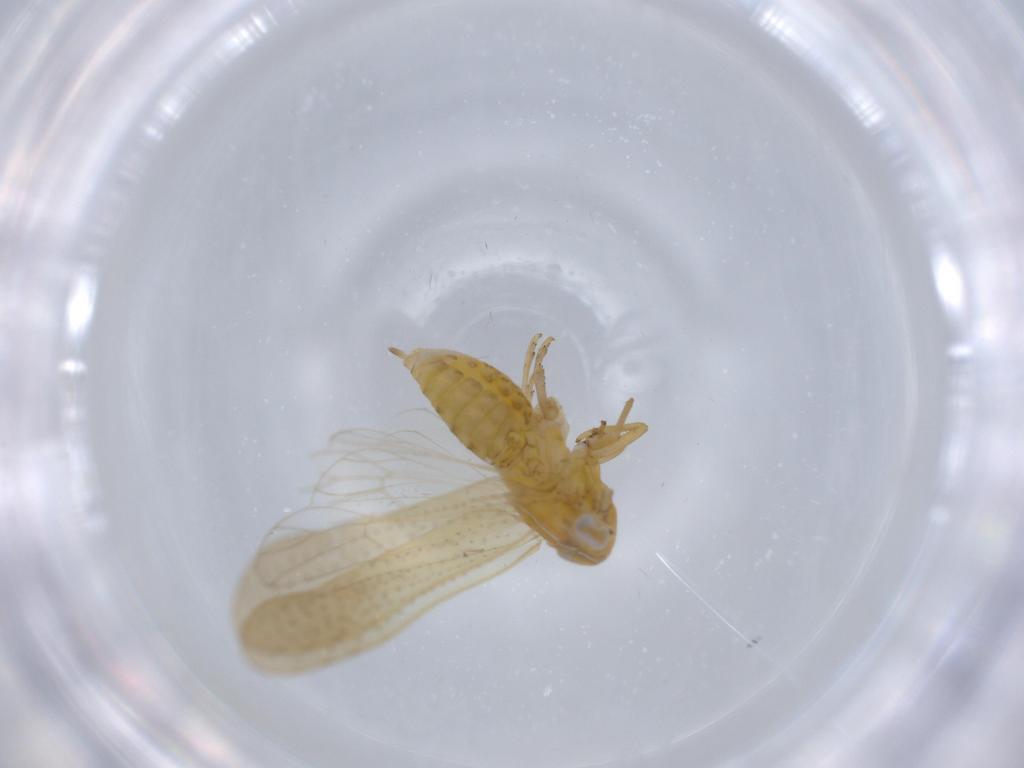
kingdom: Animalia
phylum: Arthropoda
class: Insecta
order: Hemiptera
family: Delphacidae
